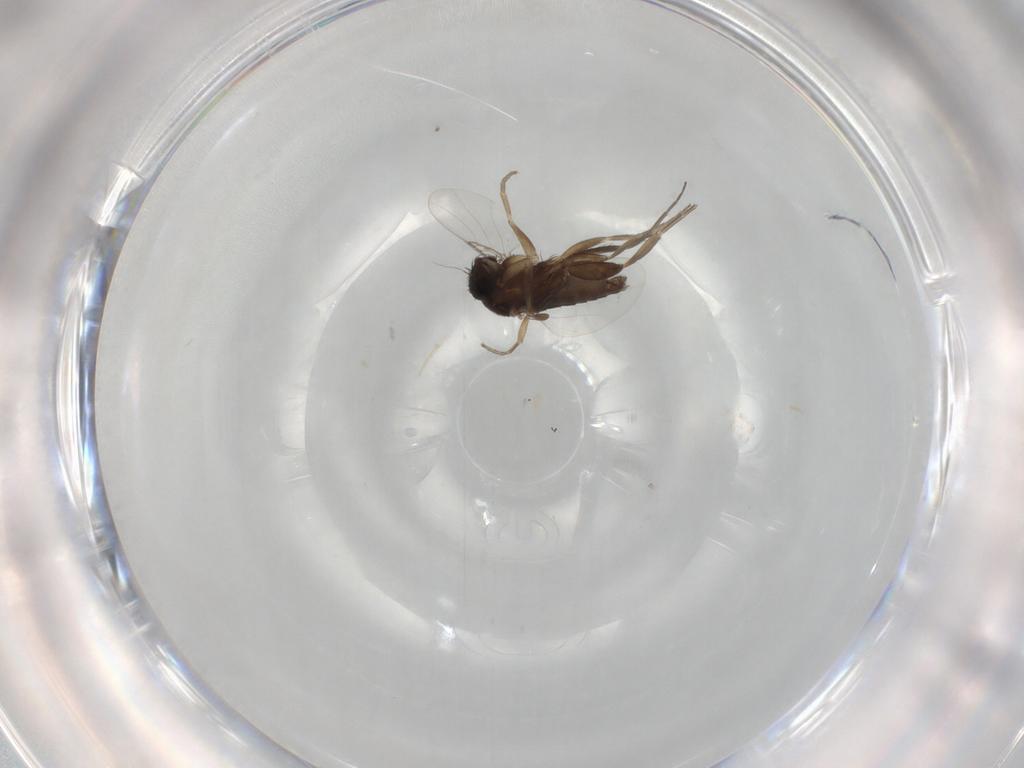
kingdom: Animalia
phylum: Arthropoda
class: Insecta
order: Diptera
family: Phoridae
